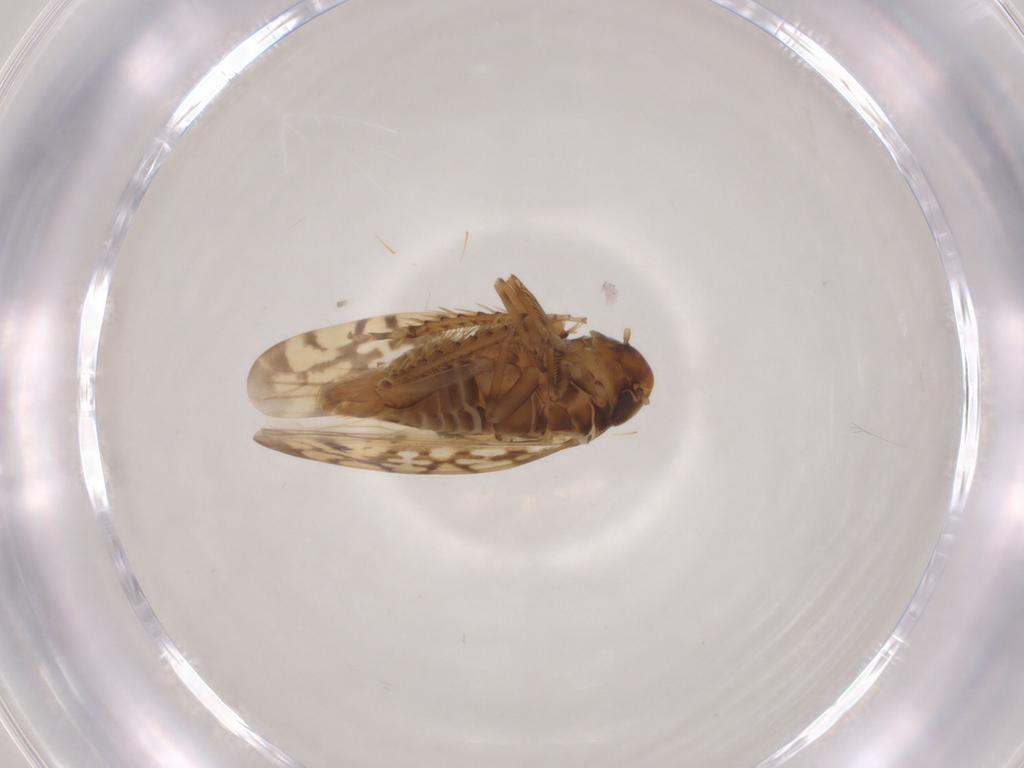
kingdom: Animalia
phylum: Arthropoda
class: Insecta
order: Hemiptera
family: Cicadellidae
